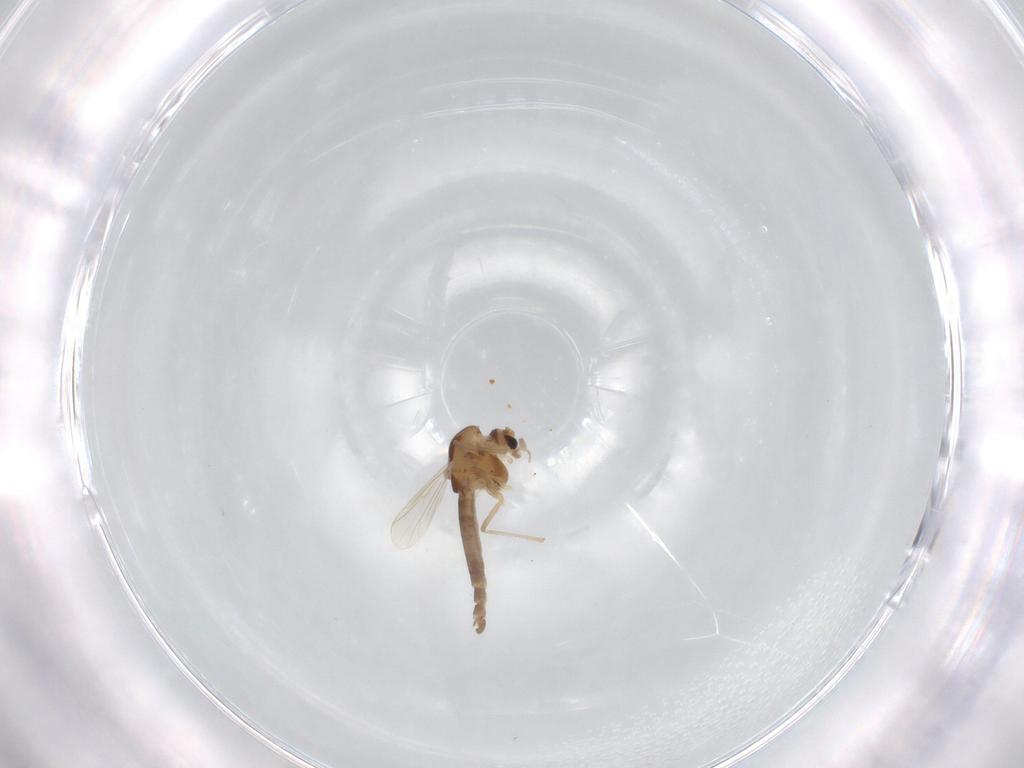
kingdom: Animalia
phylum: Arthropoda
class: Insecta
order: Diptera
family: Chironomidae
